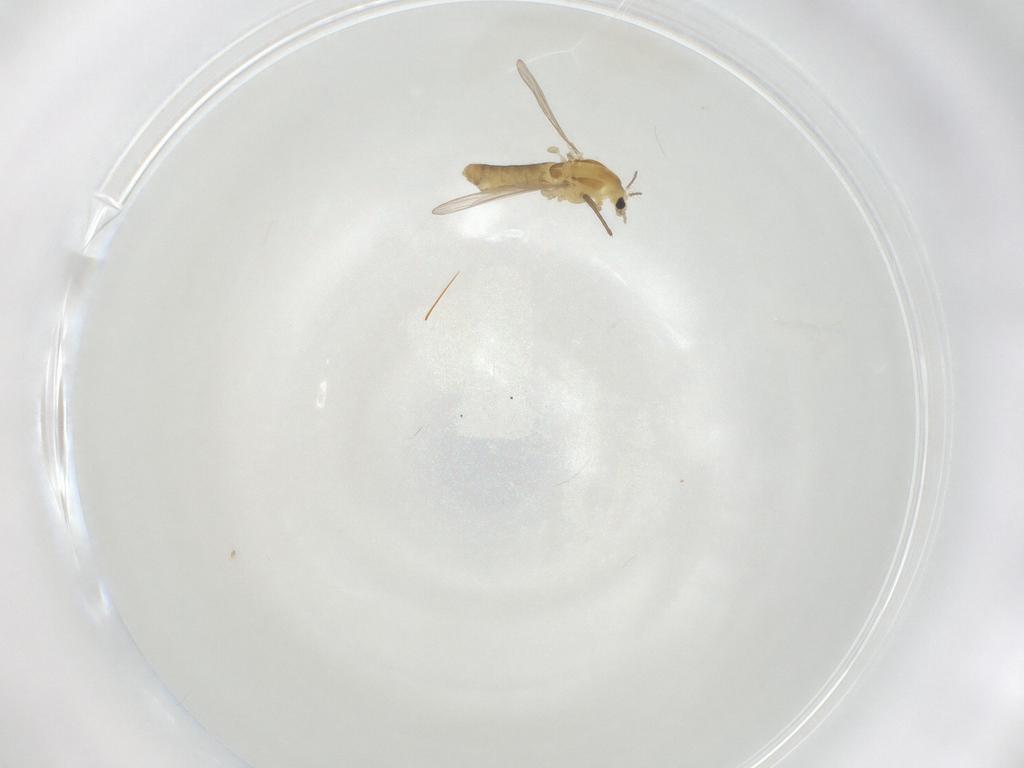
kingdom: Animalia
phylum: Arthropoda
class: Insecta
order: Diptera
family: Chironomidae
